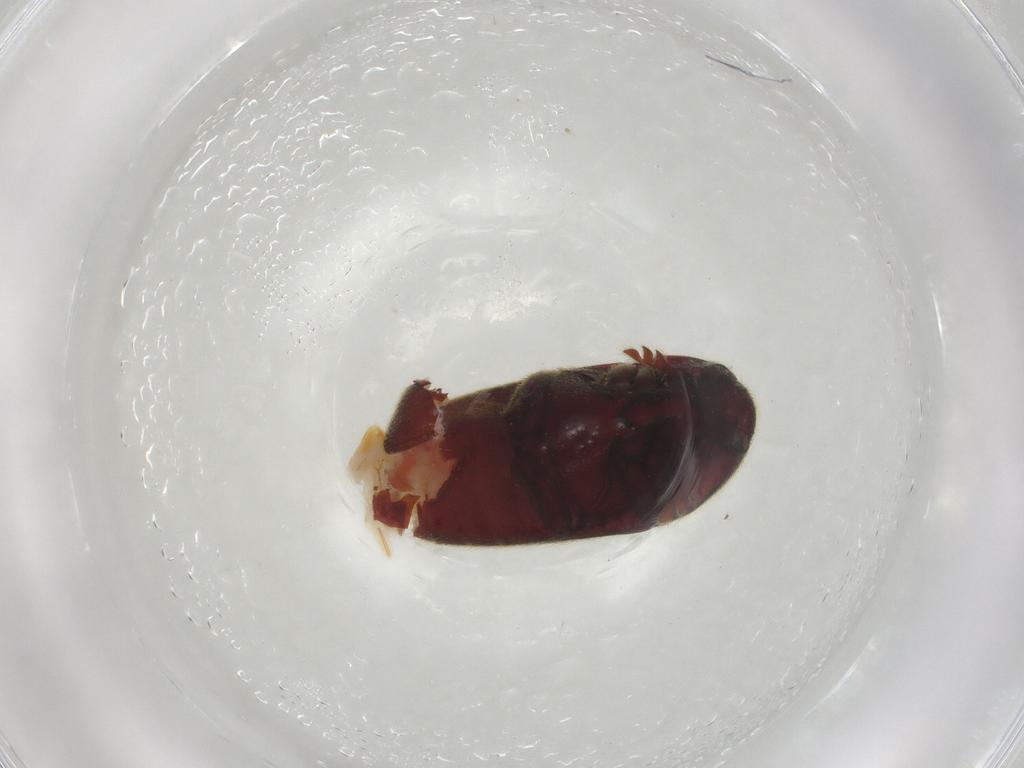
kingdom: Animalia
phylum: Arthropoda
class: Insecta
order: Coleoptera
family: Throscidae
